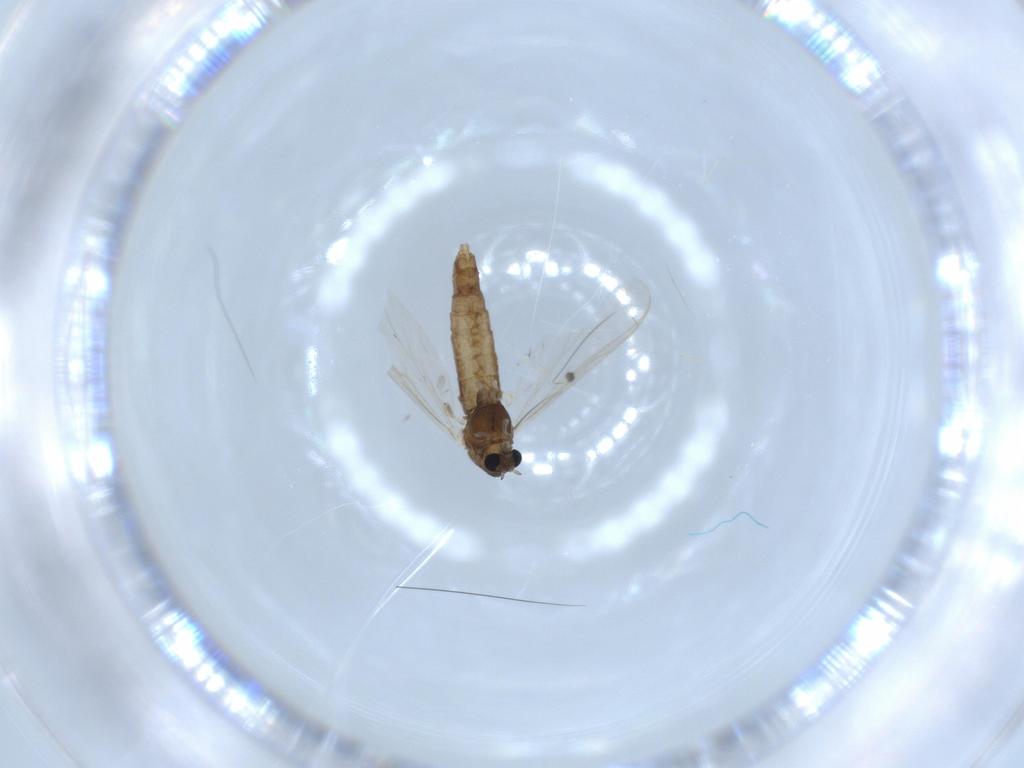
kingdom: Animalia
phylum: Arthropoda
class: Insecta
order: Diptera
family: Chironomidae
